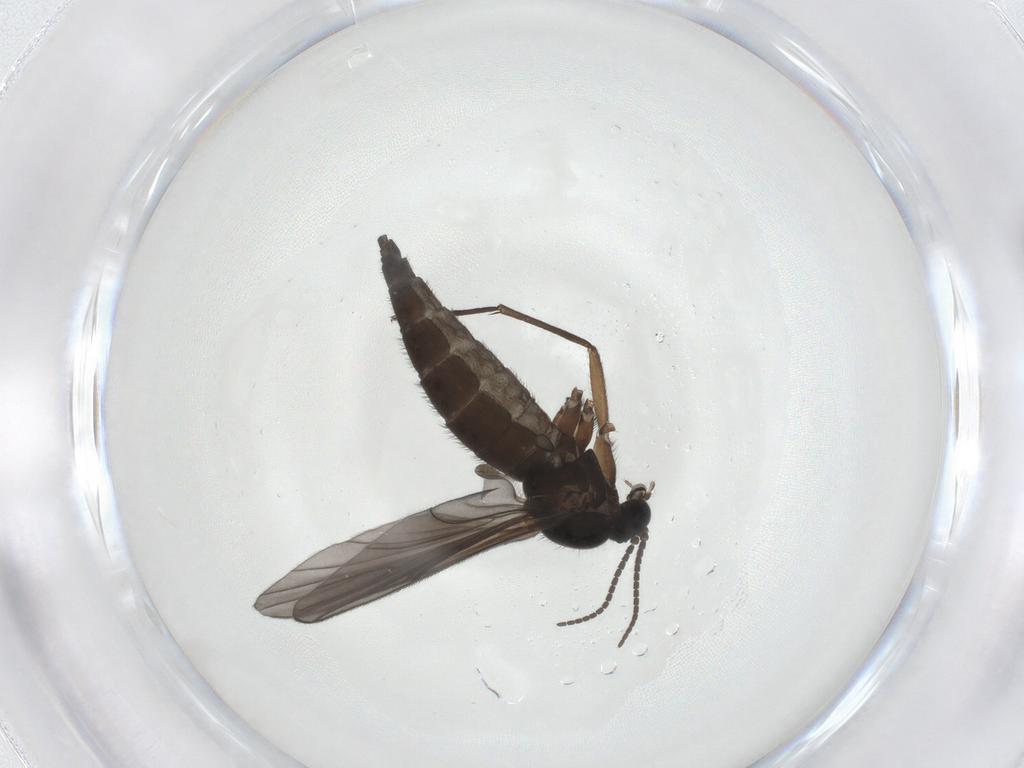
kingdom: Animalia
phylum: Arthropoda
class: Insecta
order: Diptera
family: Sciaridae
